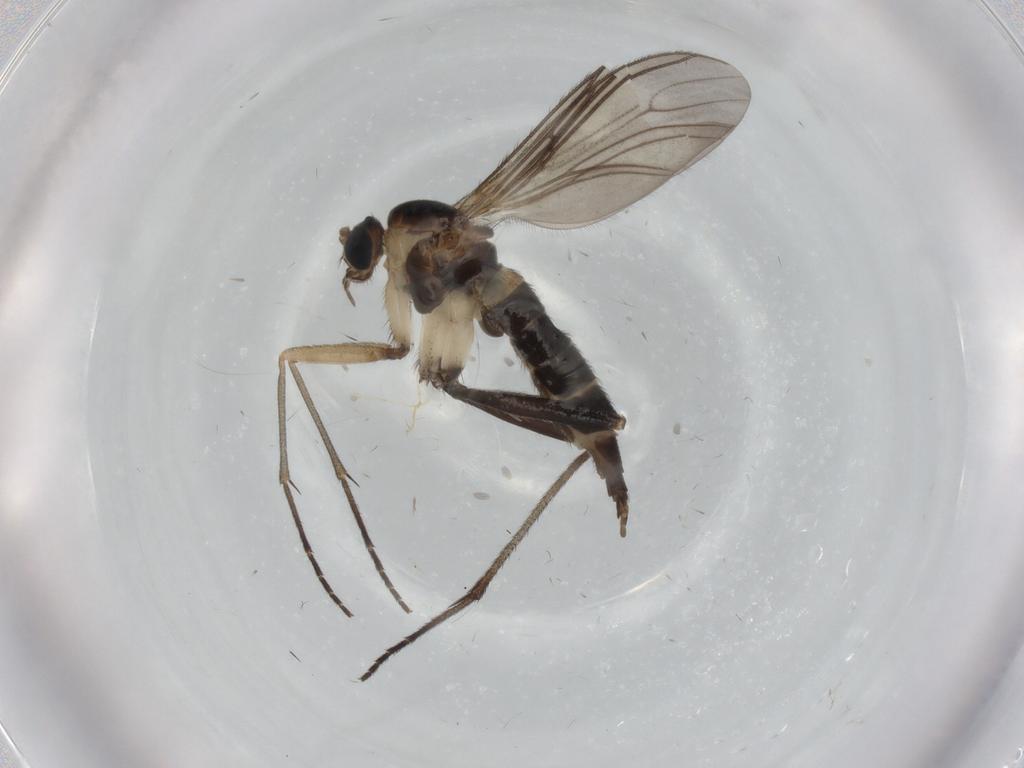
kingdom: Animalia
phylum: Arthropoda
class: Insecta
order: Diptera
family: Sciaridae
